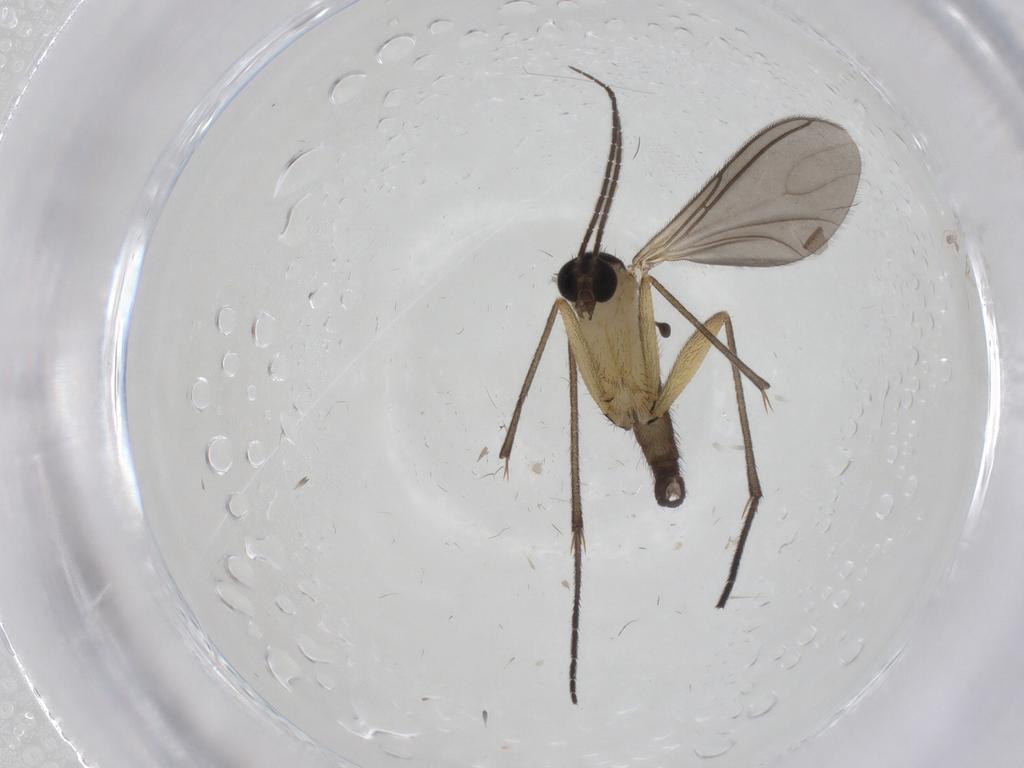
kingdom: Animalia
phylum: Arthropoda
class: Insecta
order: Diptera
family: Sciaridae
